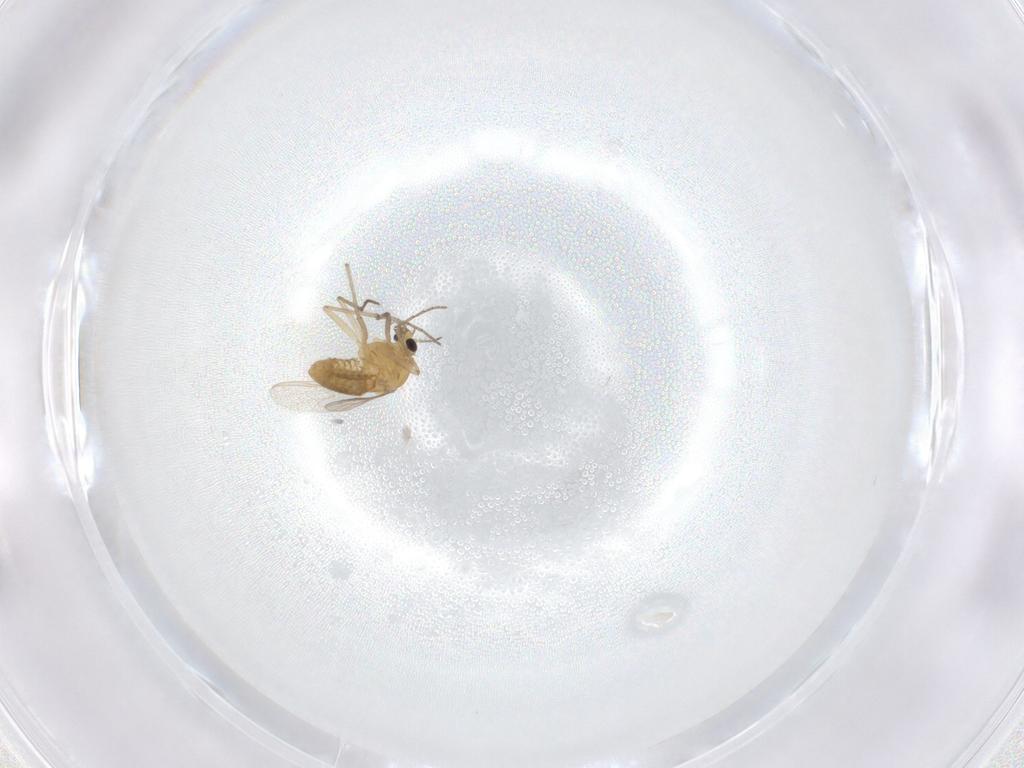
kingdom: Animalia
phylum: Arthropoda
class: Insecta
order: Diptera
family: Chironomidae
